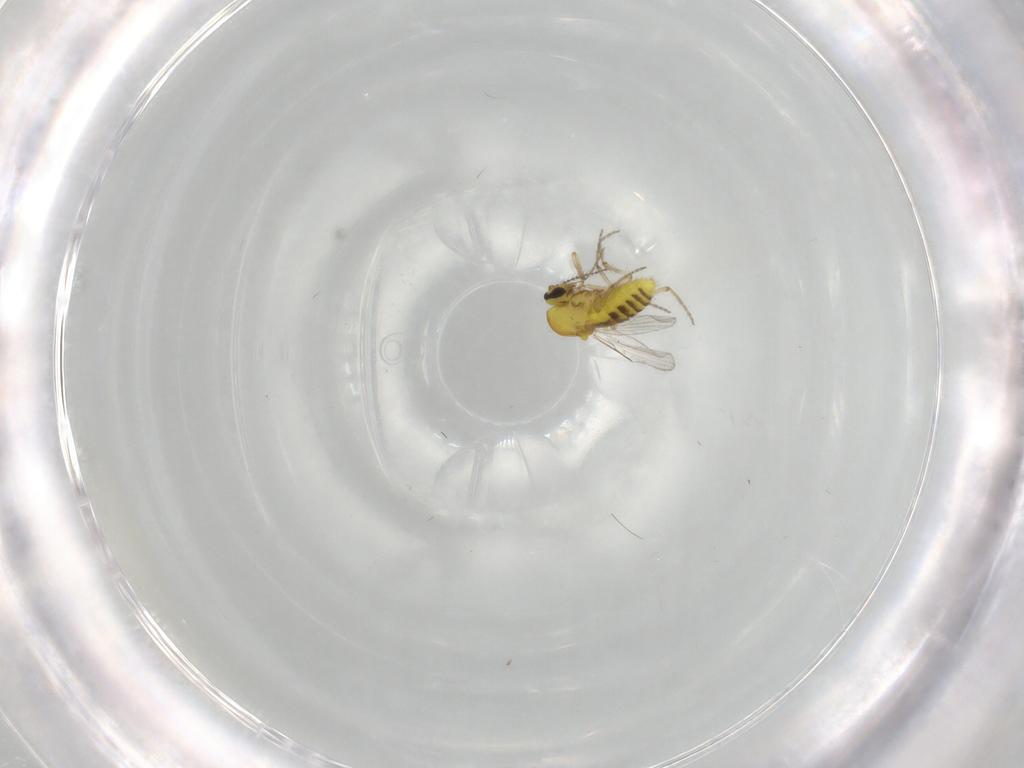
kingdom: Animalia
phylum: Arthropoda
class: Insecta
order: Diptera
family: Ceratopogonidae
